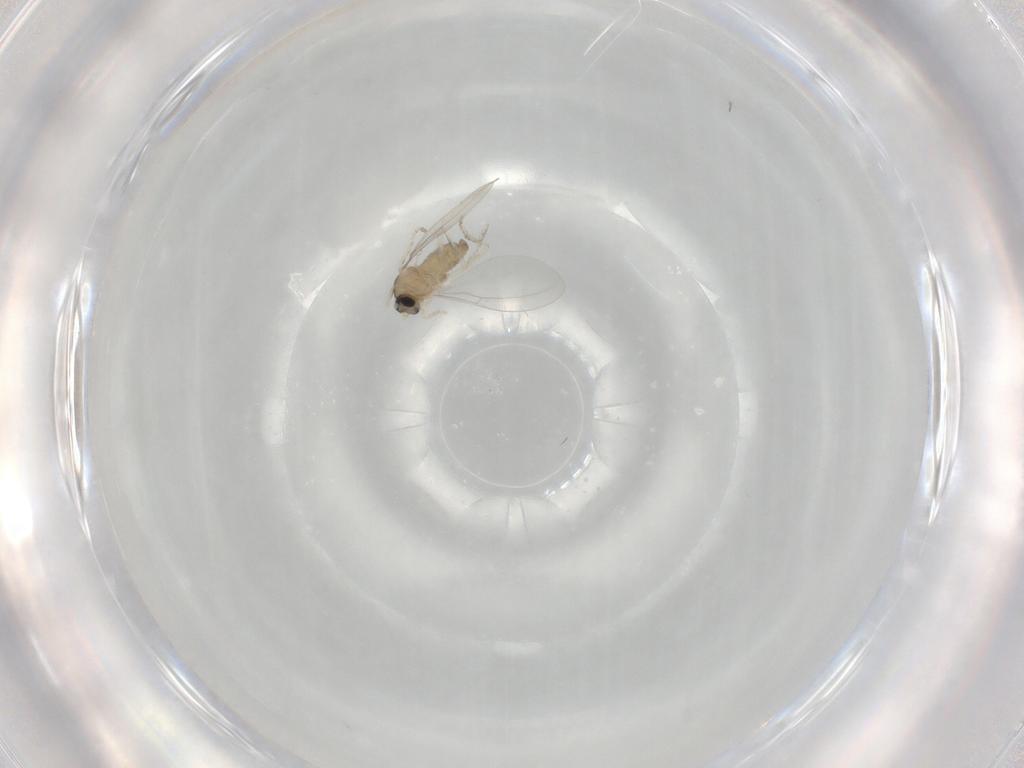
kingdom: Animalia
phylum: Arthropoda
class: Insecta
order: Diptera
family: Cecidomyiidae
